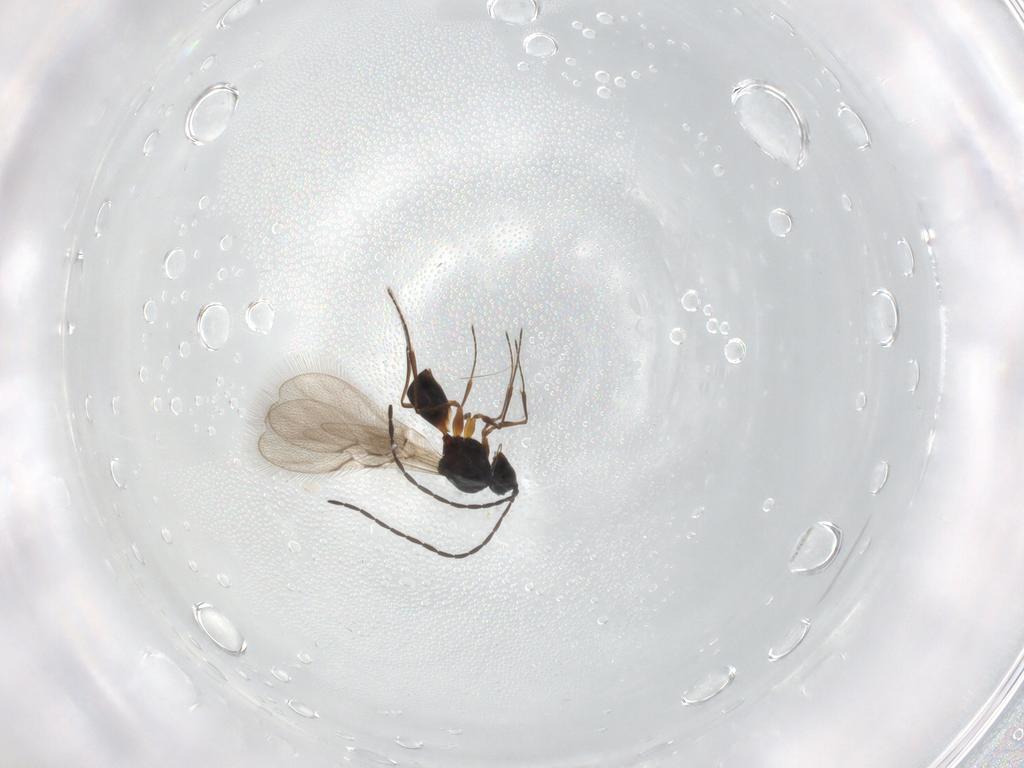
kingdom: Animalia
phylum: Arthropoda
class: Insecta
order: Hymenoptera
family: Figitidae
